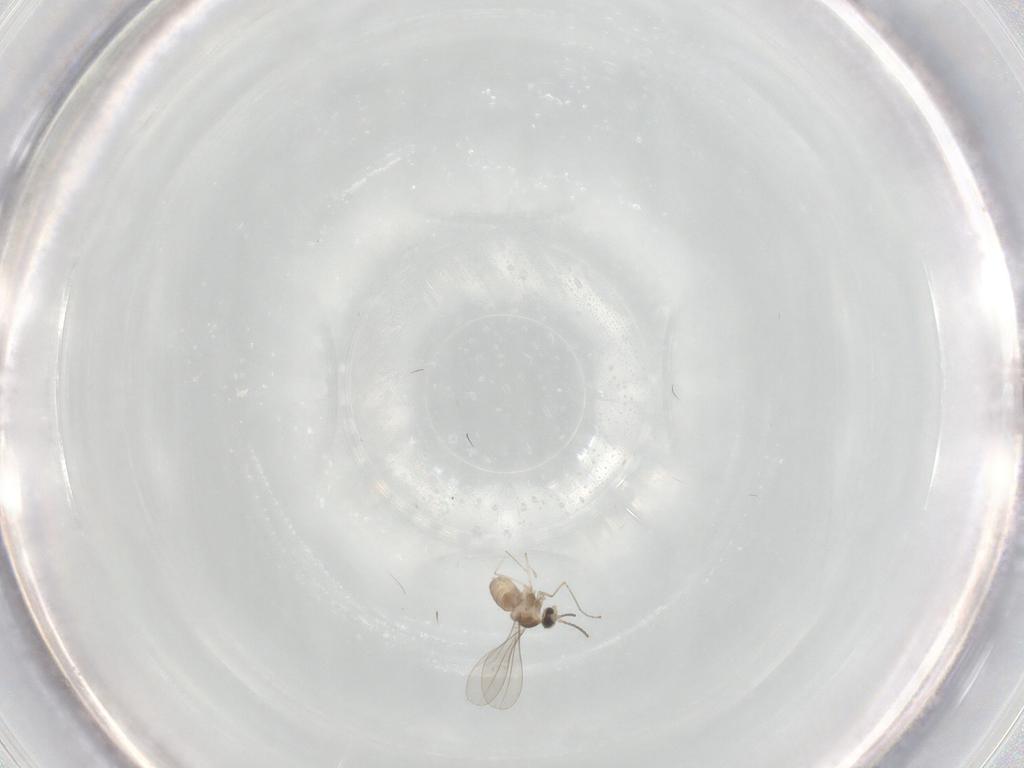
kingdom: Animalia
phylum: Arthropoda
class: Insecta
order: Diptera
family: Cecidomyiidae
